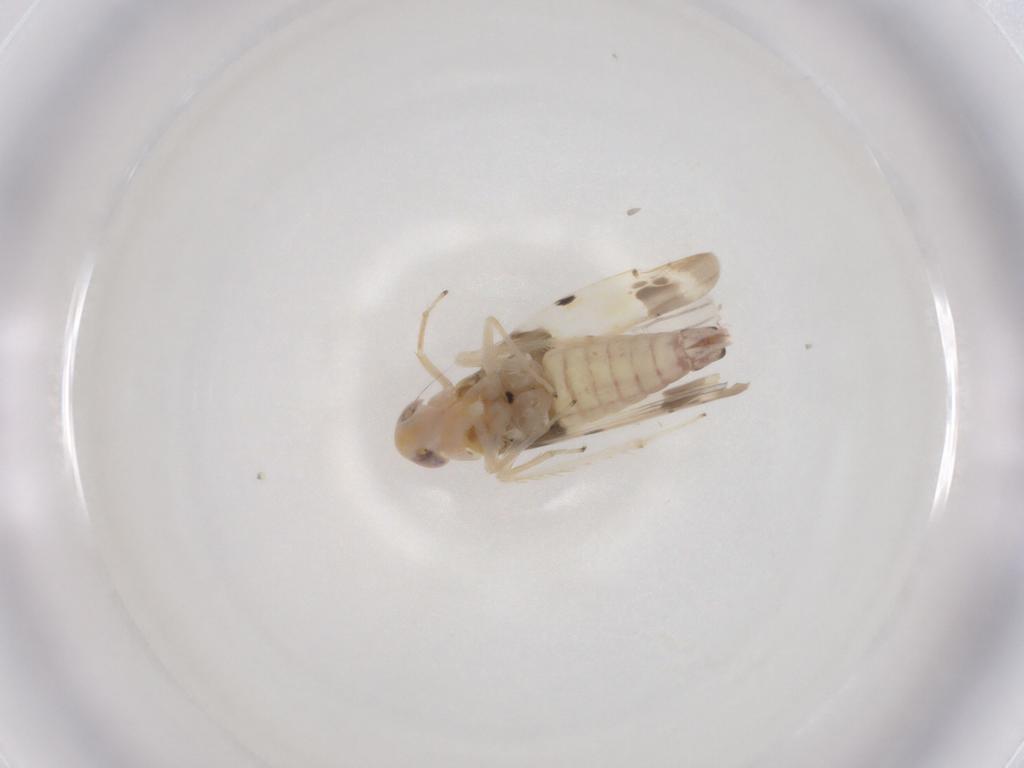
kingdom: Animalia
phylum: Arthropoda
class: Insecta
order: Hemiptera
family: Cicadellidae
